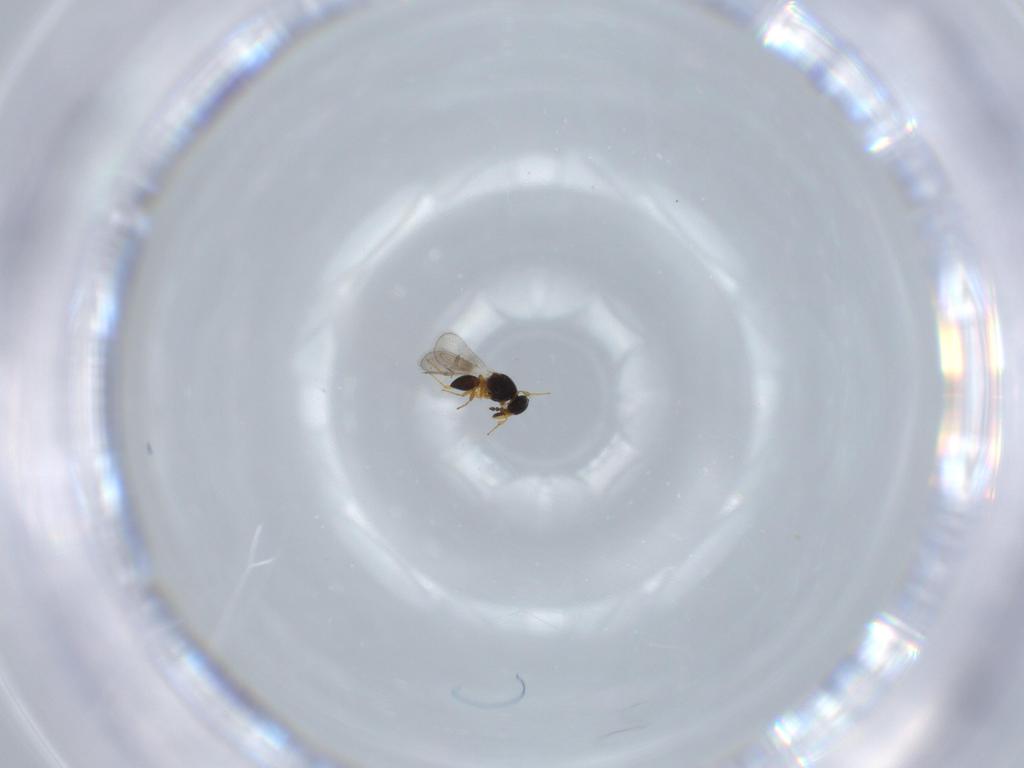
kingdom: Animalia
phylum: Arthropoda
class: Insecta
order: Hymenoptera
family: Platygastridae
